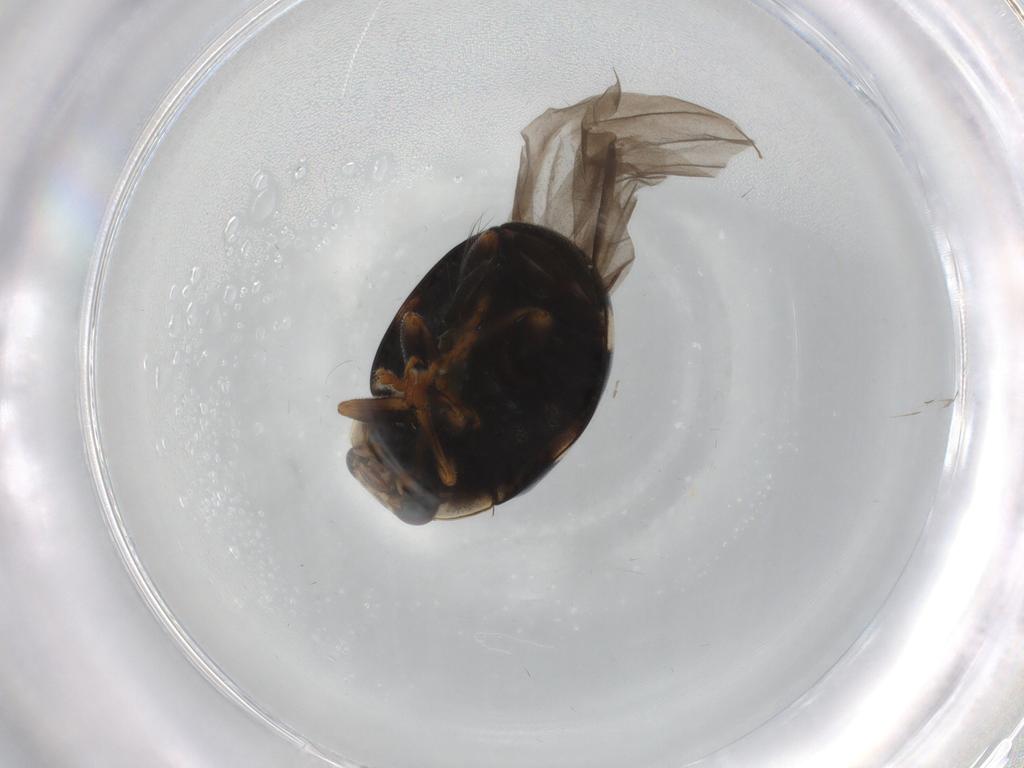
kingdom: Animalia
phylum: Arthropoda
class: Insecta
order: Coleoptera
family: Coccinellidae
